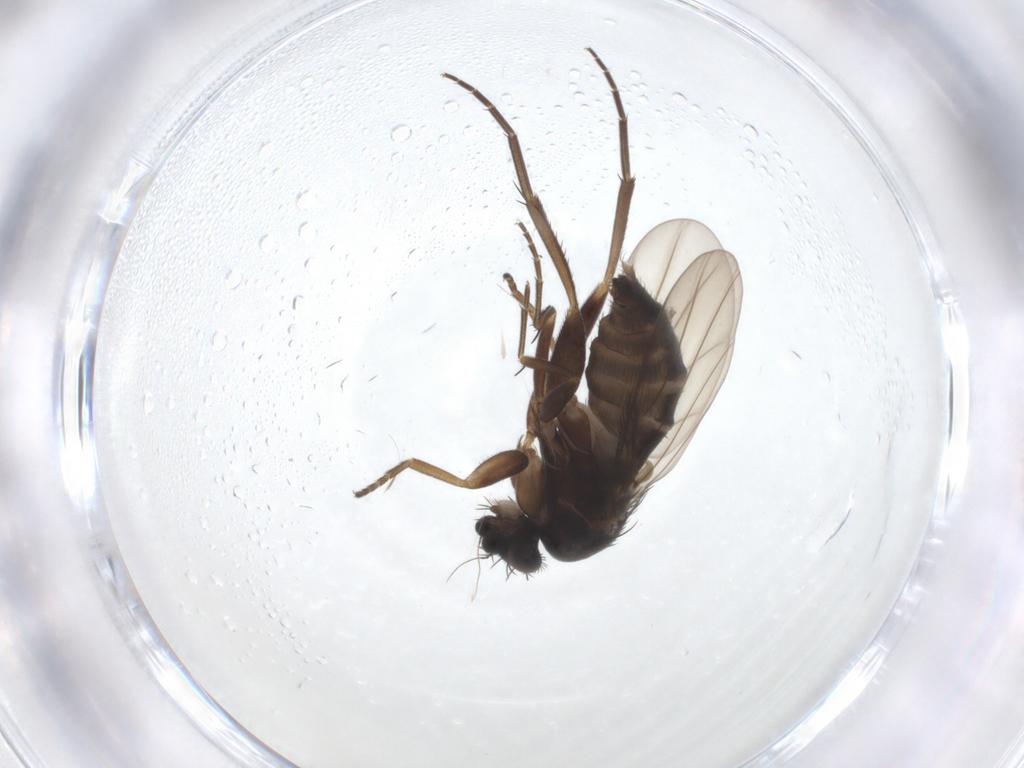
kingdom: Animalia
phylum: Arthropoda
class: Insecta
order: Diptera
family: Phoridae
